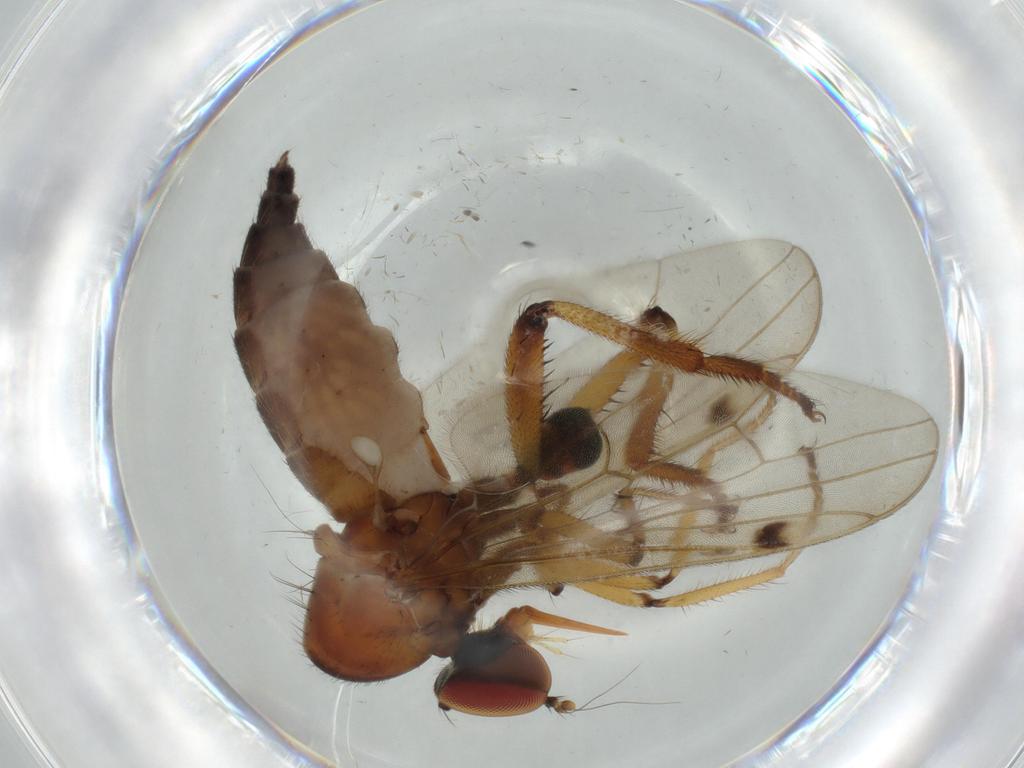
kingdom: Animalia
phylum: Arthropoda
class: Insecta
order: Diptera
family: Hybotidae
